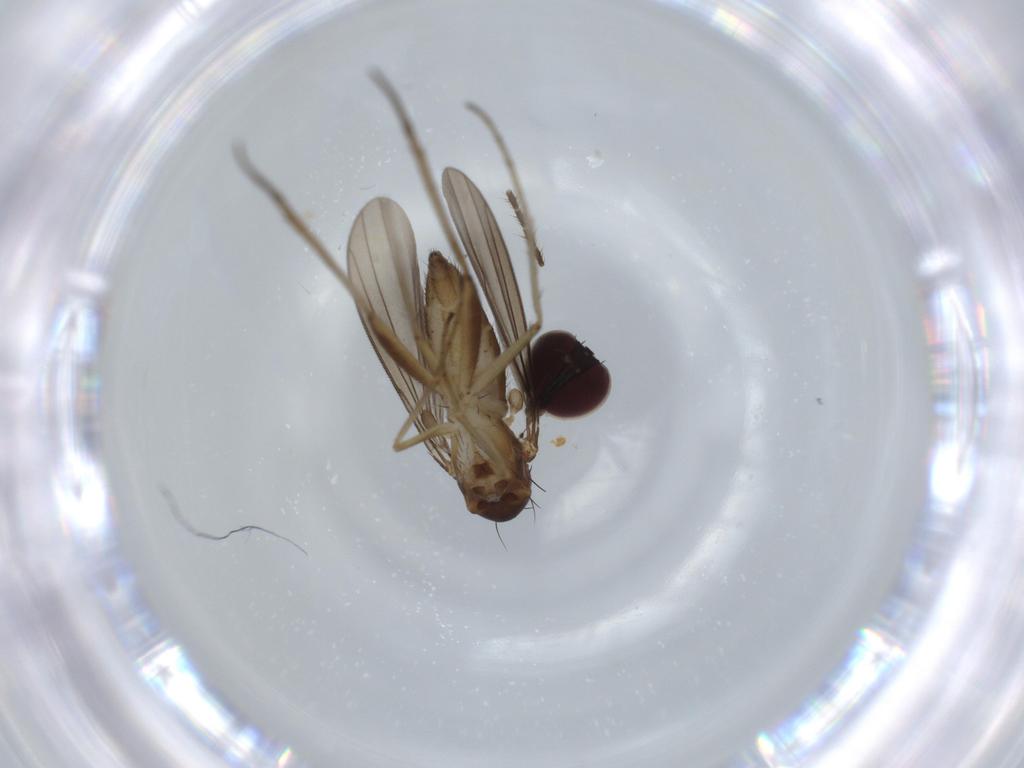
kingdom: Animalia
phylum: Arthropoda
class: Insecta
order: Diptera
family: Dolichopodidae
